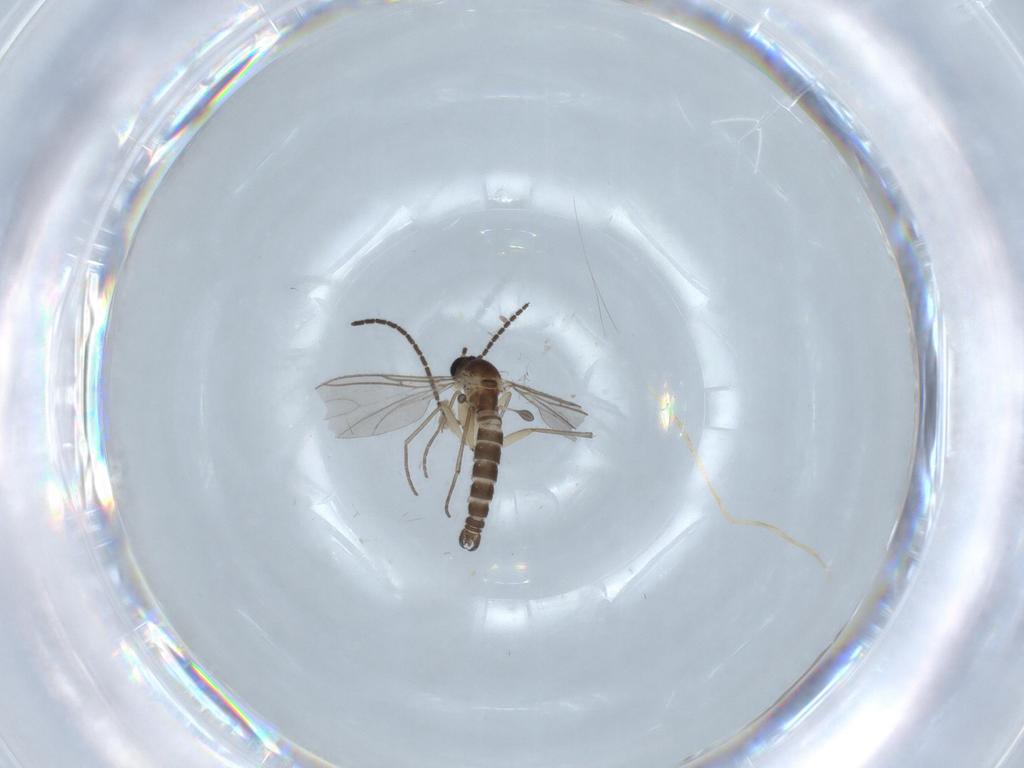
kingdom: Animalia
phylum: Arthropoda
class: Insecta
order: Diptera
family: Sciaridae
